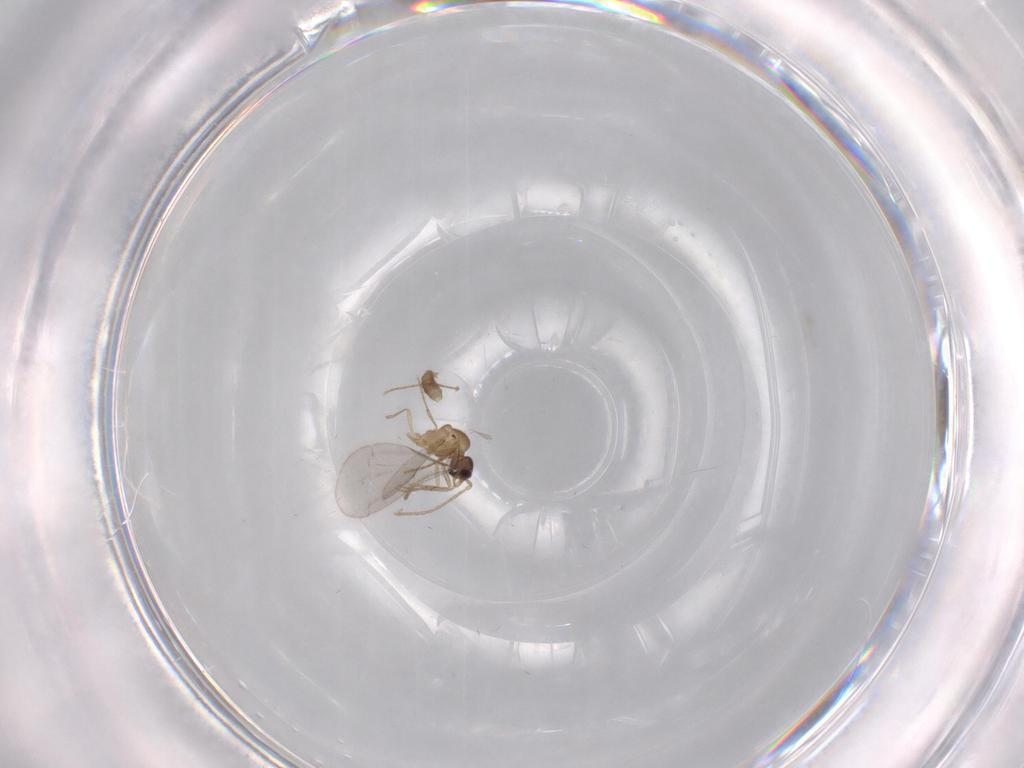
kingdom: Animalia
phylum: Arthropoda
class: Insecta
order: Hymenoptera
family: Formicidae
